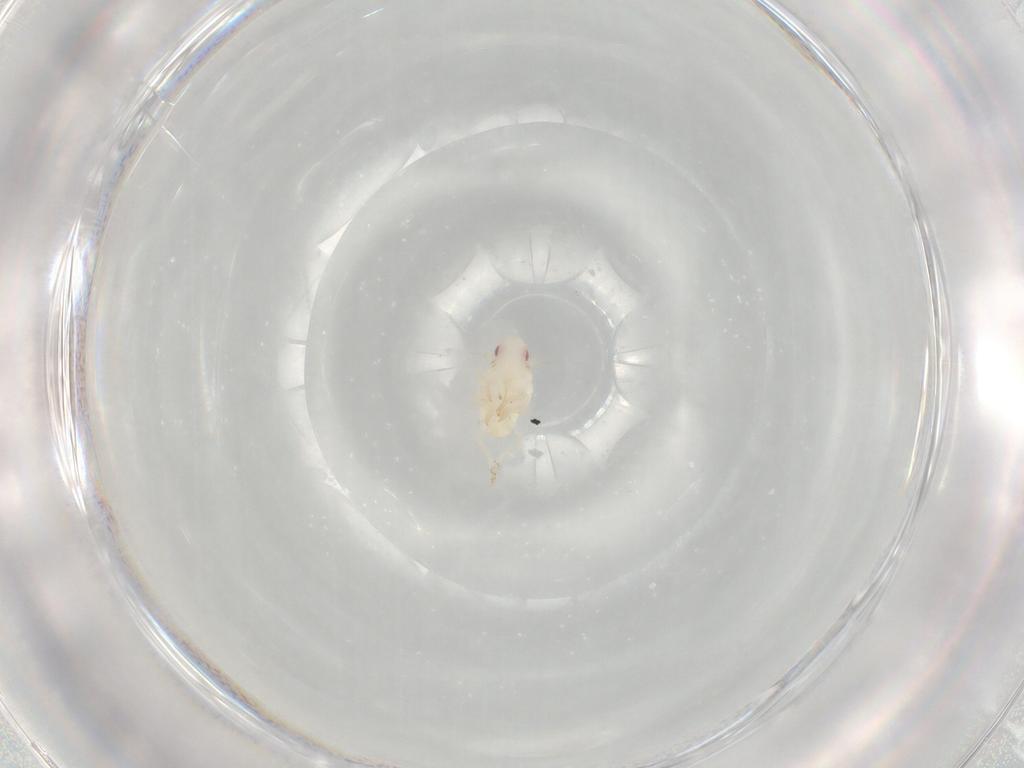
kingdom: Animalia
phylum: Arthropoda
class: Insecta
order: Hemiptera
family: Flatidae
